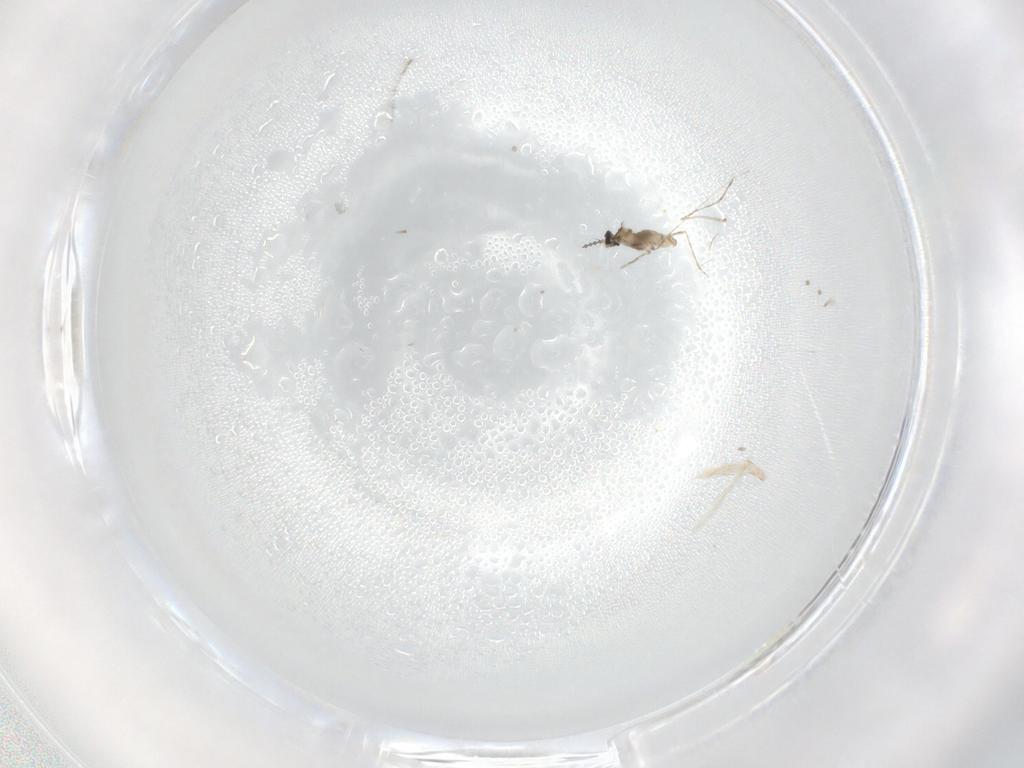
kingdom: Animalia
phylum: Arthropoda
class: Insecta
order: Diptera
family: Chironomidae
